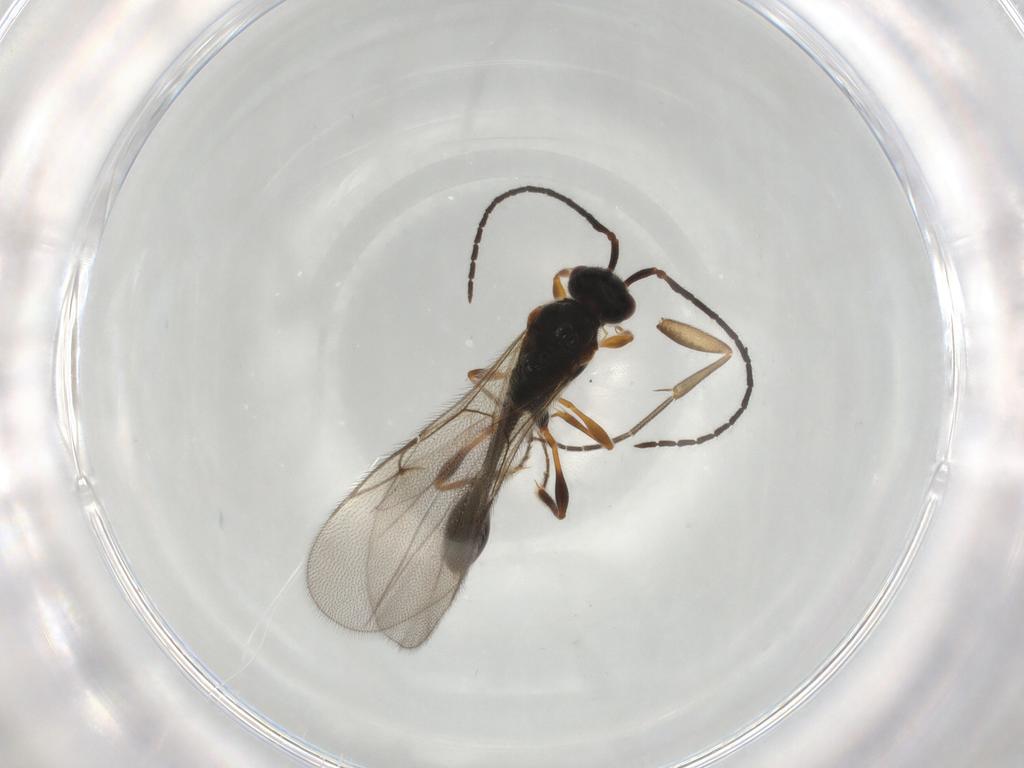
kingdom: Animalia
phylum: Arthropoda
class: Insecta
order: Hymenoptera
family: Diapriidae
